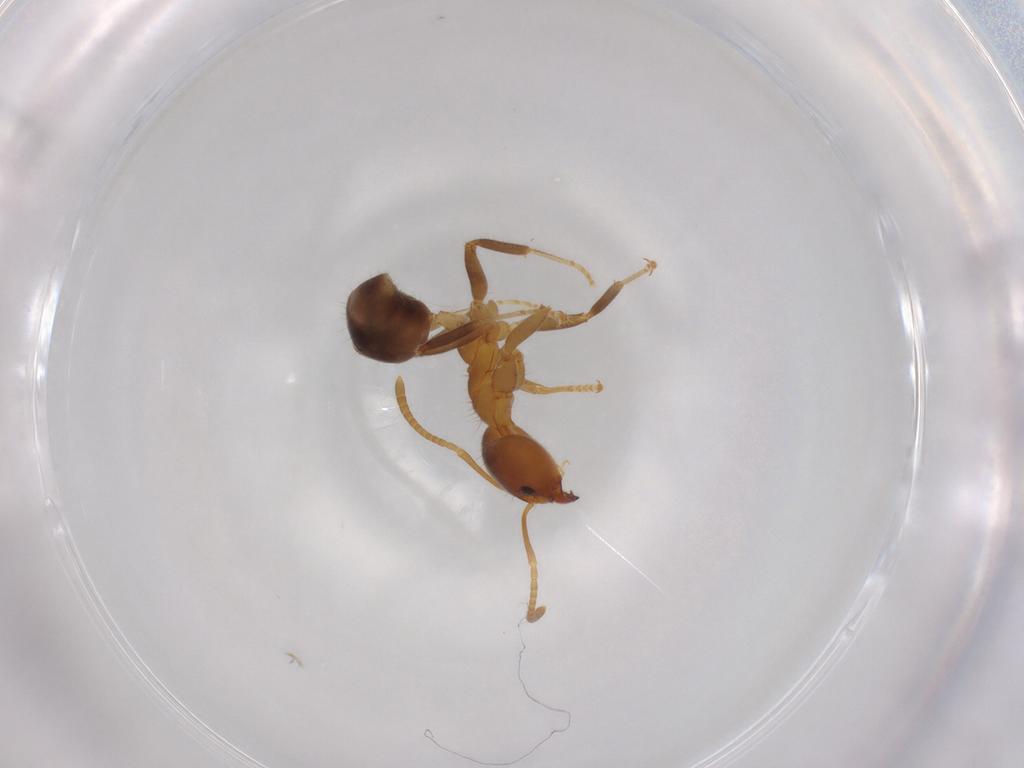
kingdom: Animalia
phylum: Arthropoda
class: Insecta
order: Hymenoptera
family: Formicidae
